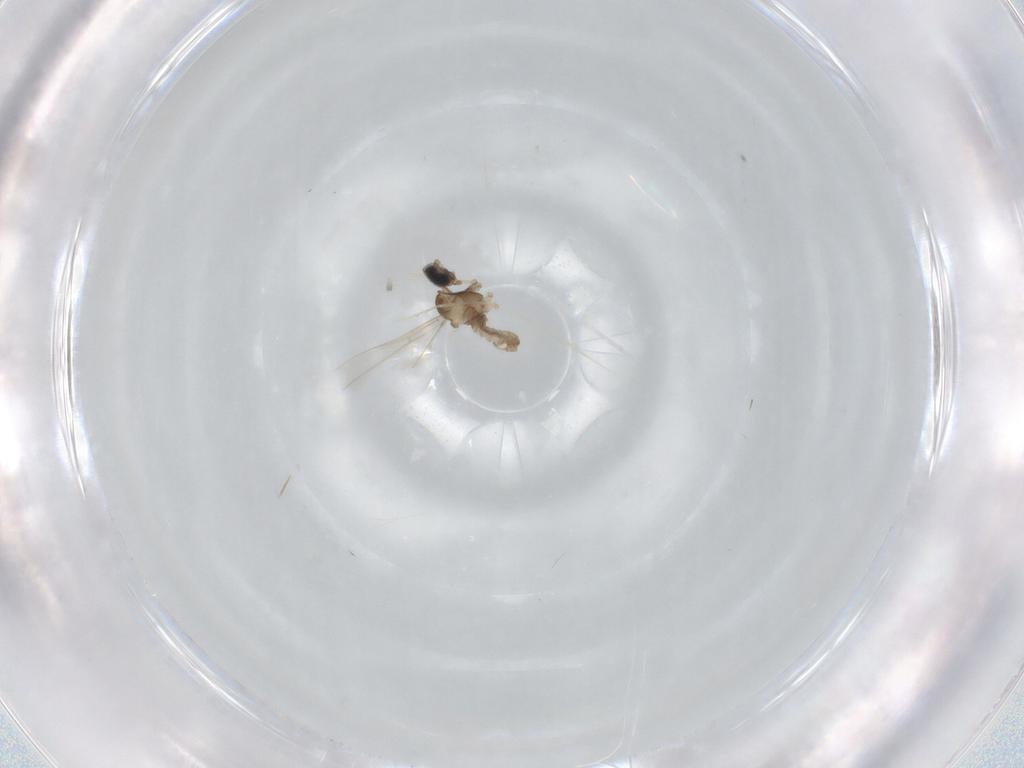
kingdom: Animalia
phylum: Arthropoda
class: Insecta
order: Diptera
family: Cecidomyiidae
